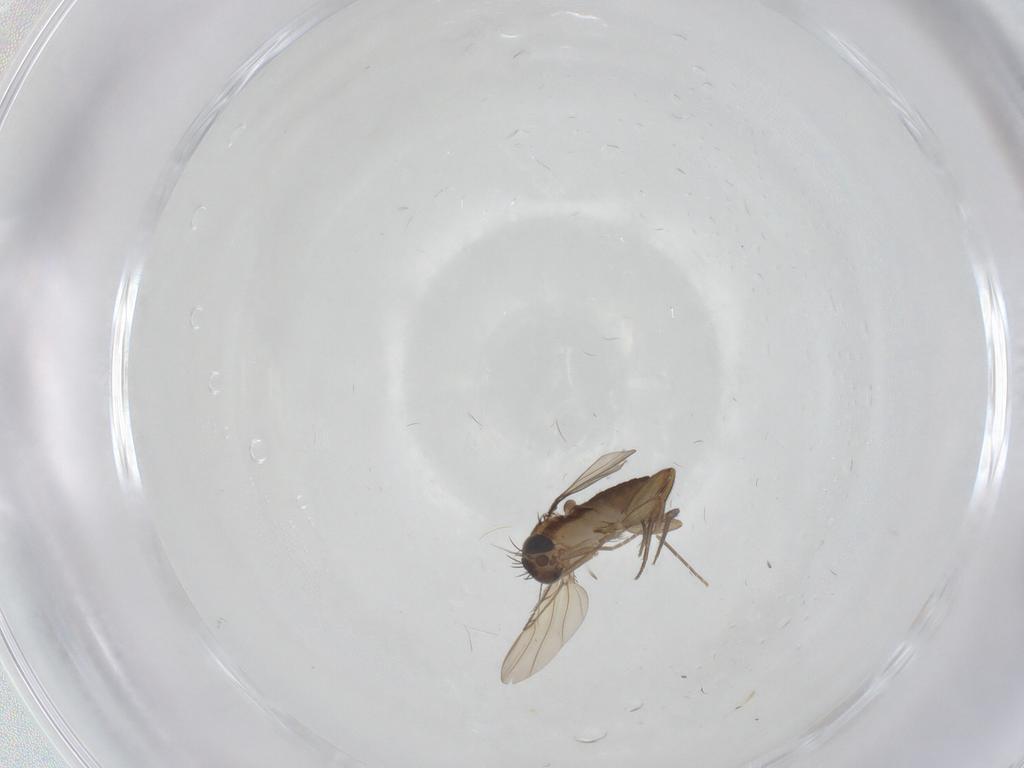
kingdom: Animalia
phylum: Arthropoda
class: Insecta
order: Diptera
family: Phoridae
